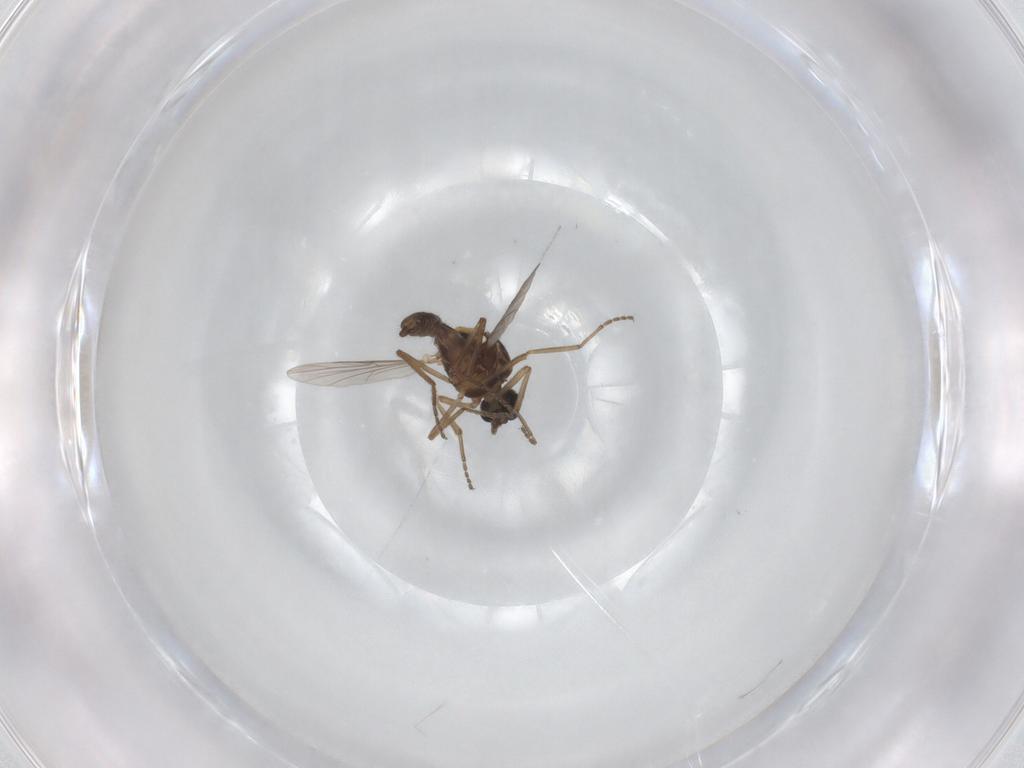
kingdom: Animalia
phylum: Arthropoda
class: Insecta
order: Diptera
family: Ceratopogonidae
